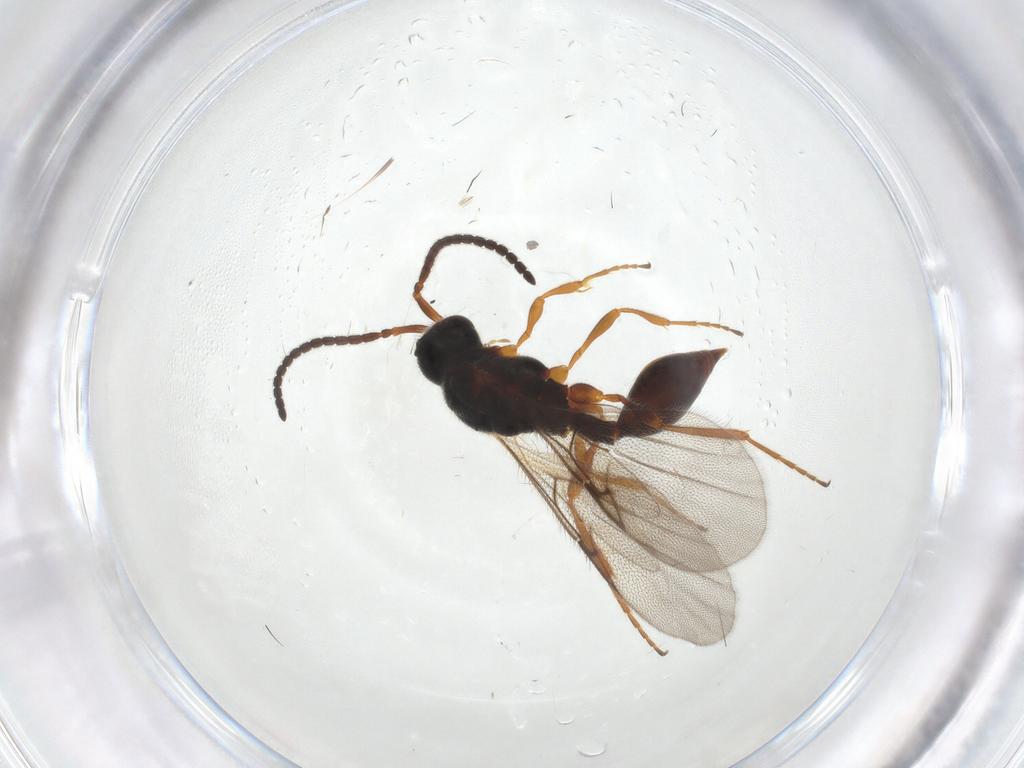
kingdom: Animalia
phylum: Arthropoda
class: Insecta
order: Hymenoptera
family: Diapriidae
